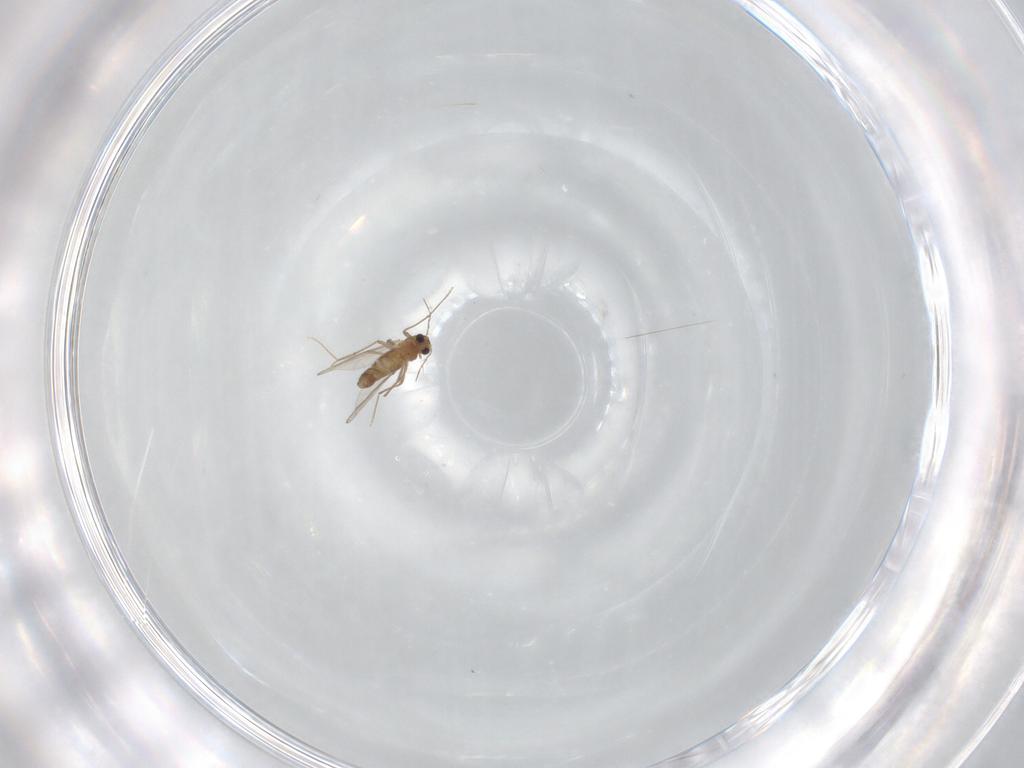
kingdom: Animalia
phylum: Arthropoda
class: Insecta
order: Diptera
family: Chironomidae
